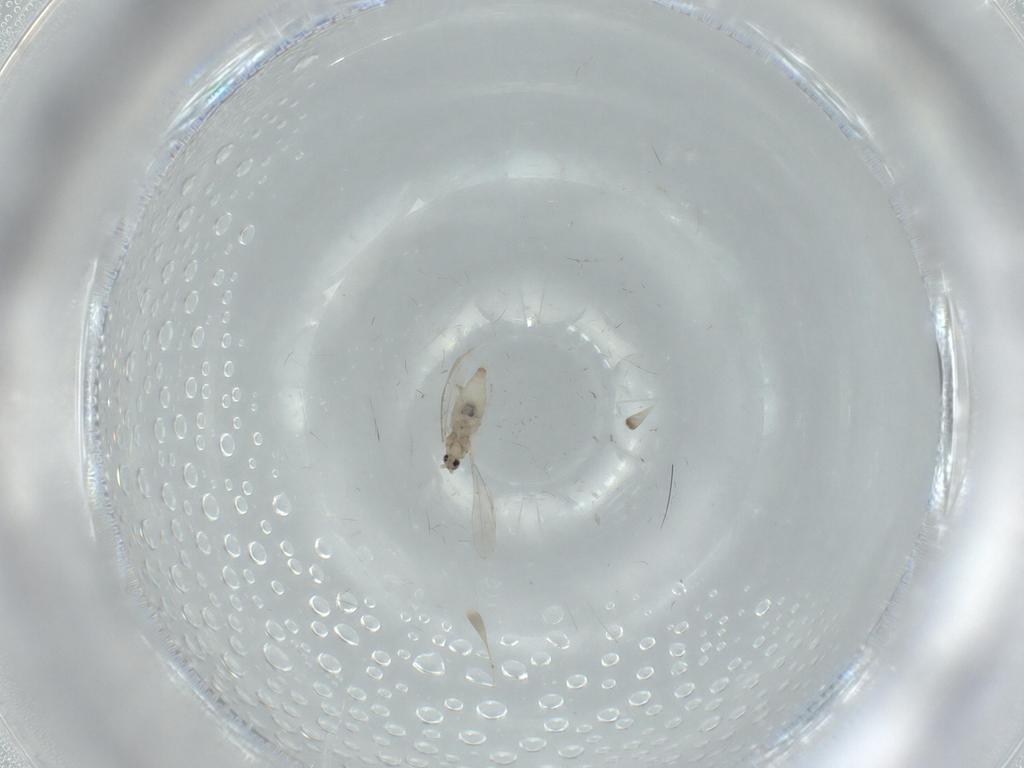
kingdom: Animalia
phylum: Arthropoda
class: Insecta
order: Diptera
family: Cecidomyiidae
